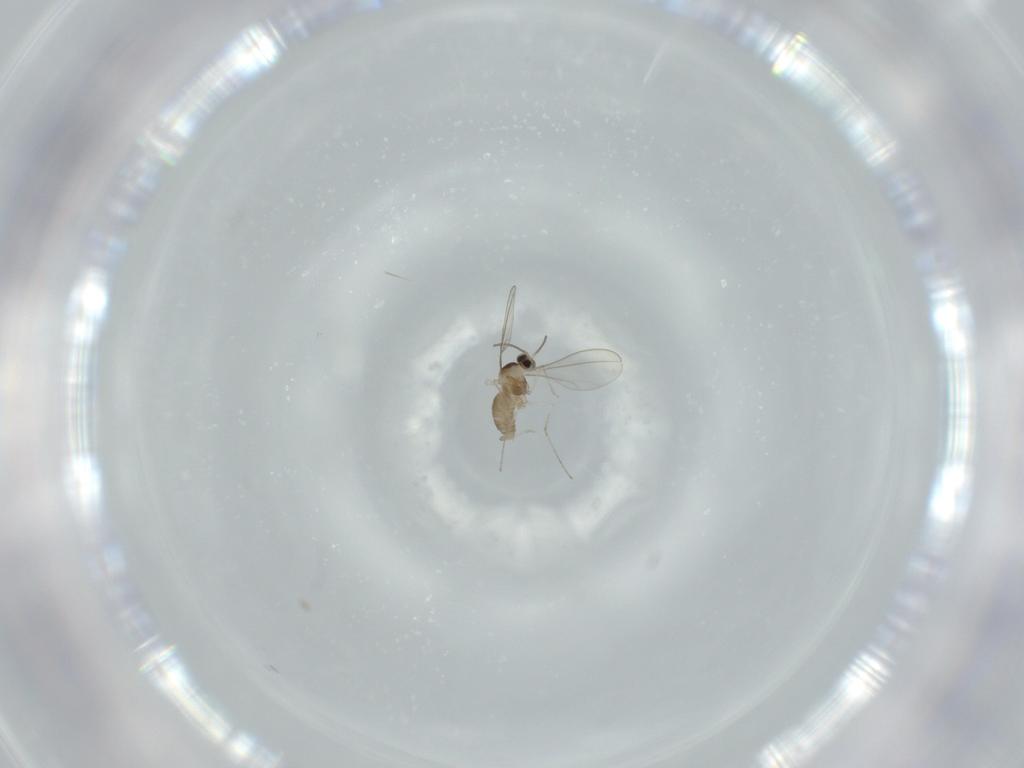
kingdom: Animalia
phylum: Arthropoda
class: Insecta
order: Diptera
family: Cecidomyiidae
